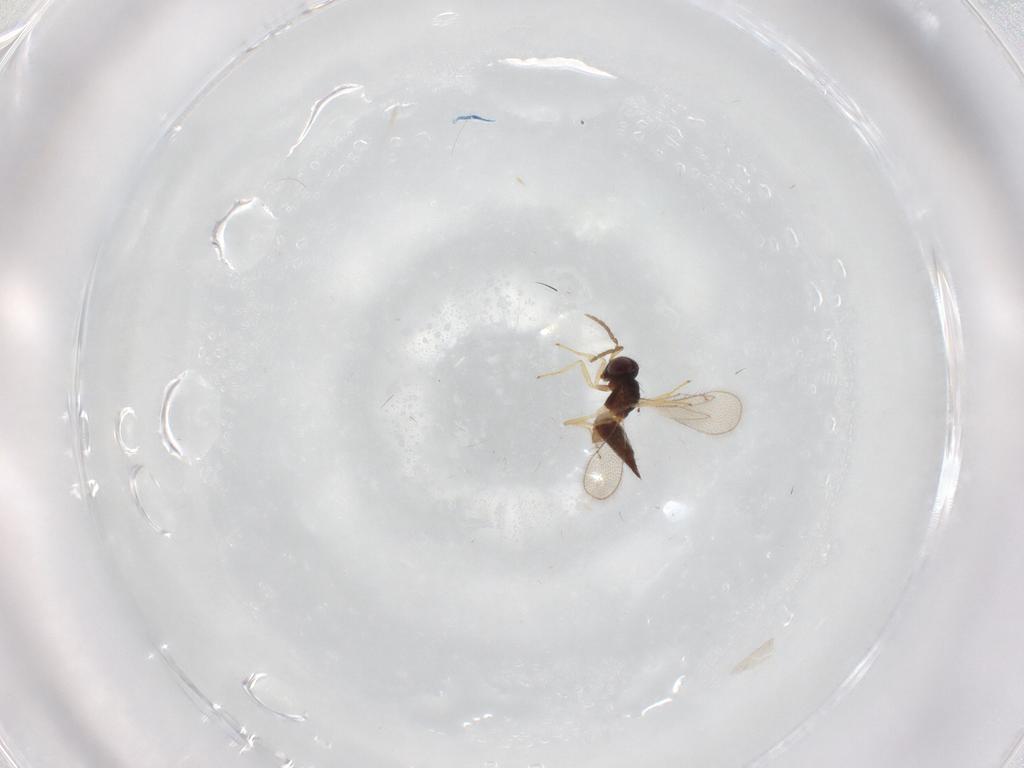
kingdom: Animalia
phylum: Arthropoda
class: Insecta
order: Hymenoptera
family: Eulophidae
